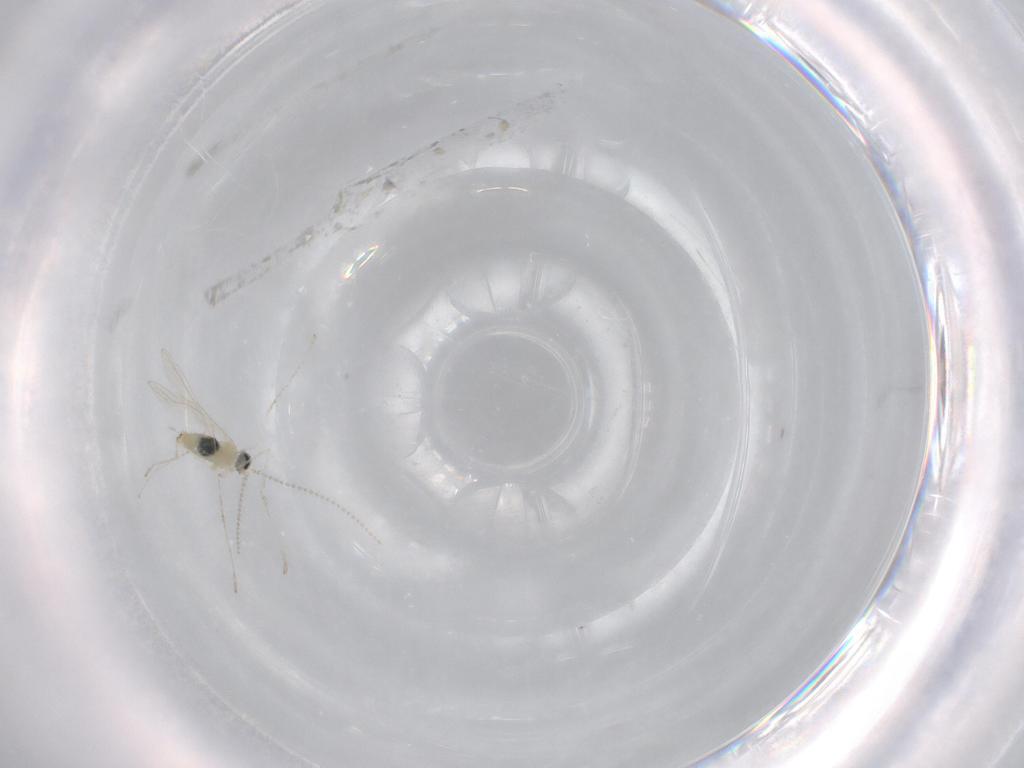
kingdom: Animalia
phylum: Arthropoda
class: Insecta
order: Diptera
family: Cecidomyiidae
